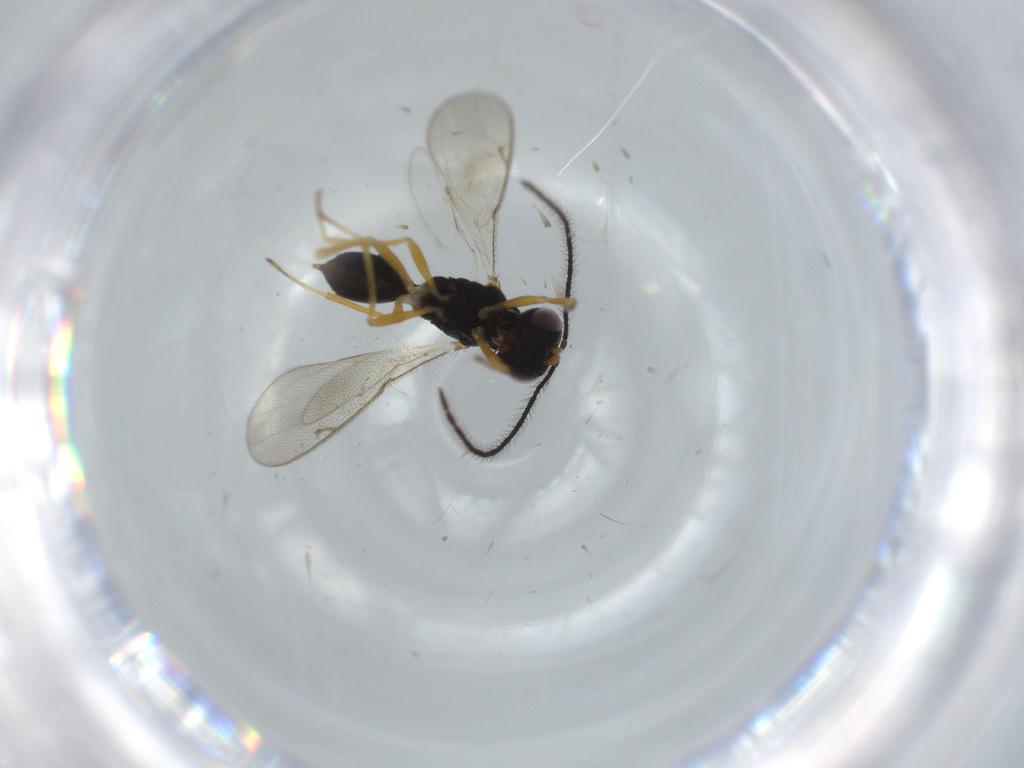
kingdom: Animalia
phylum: Arthropoda
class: Insecta
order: Hymenoptera
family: Diparidae
